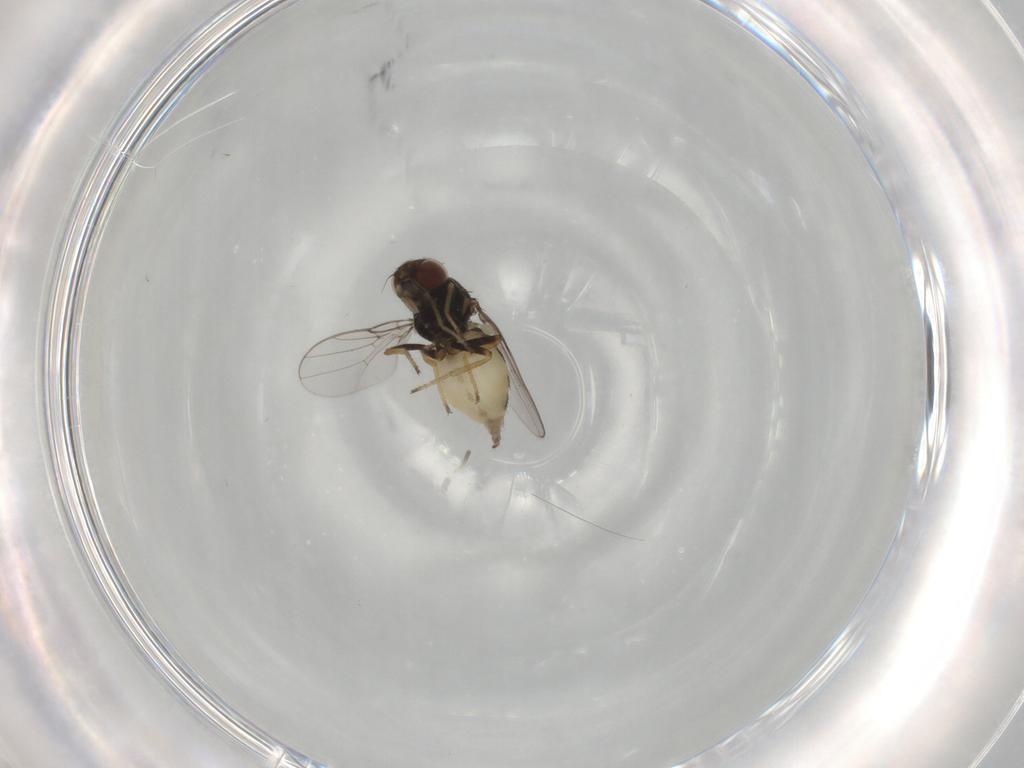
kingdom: Animalia
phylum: Arthropoda
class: Insecta
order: Diptera
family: Chloropidae
